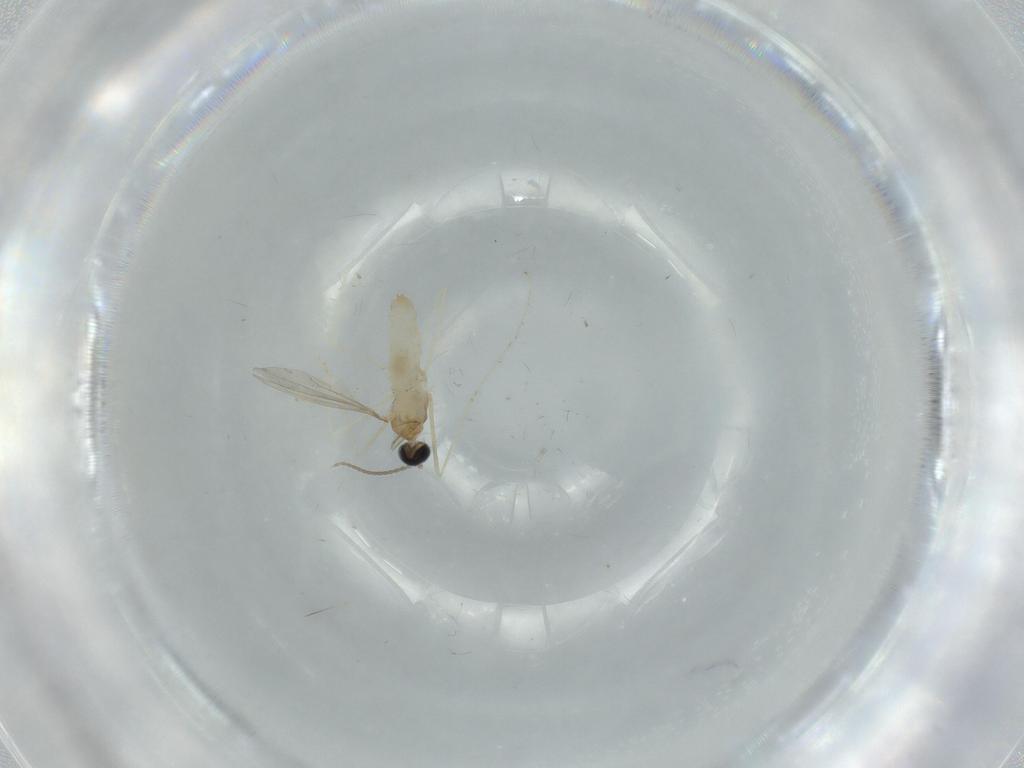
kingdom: Animalia
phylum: Arthropoda
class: Insecta
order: Diptera
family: Cecidomyiidae
